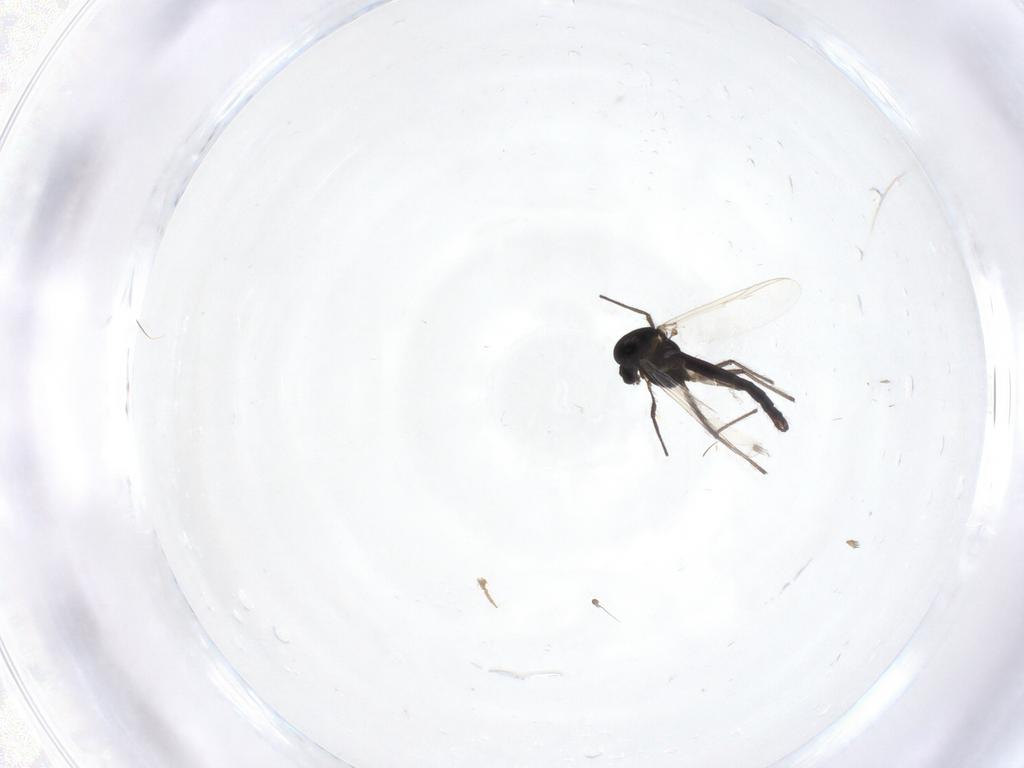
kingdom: Animalia
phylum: Arthropoda
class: Insecta
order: Diptera
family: Chironomidae
